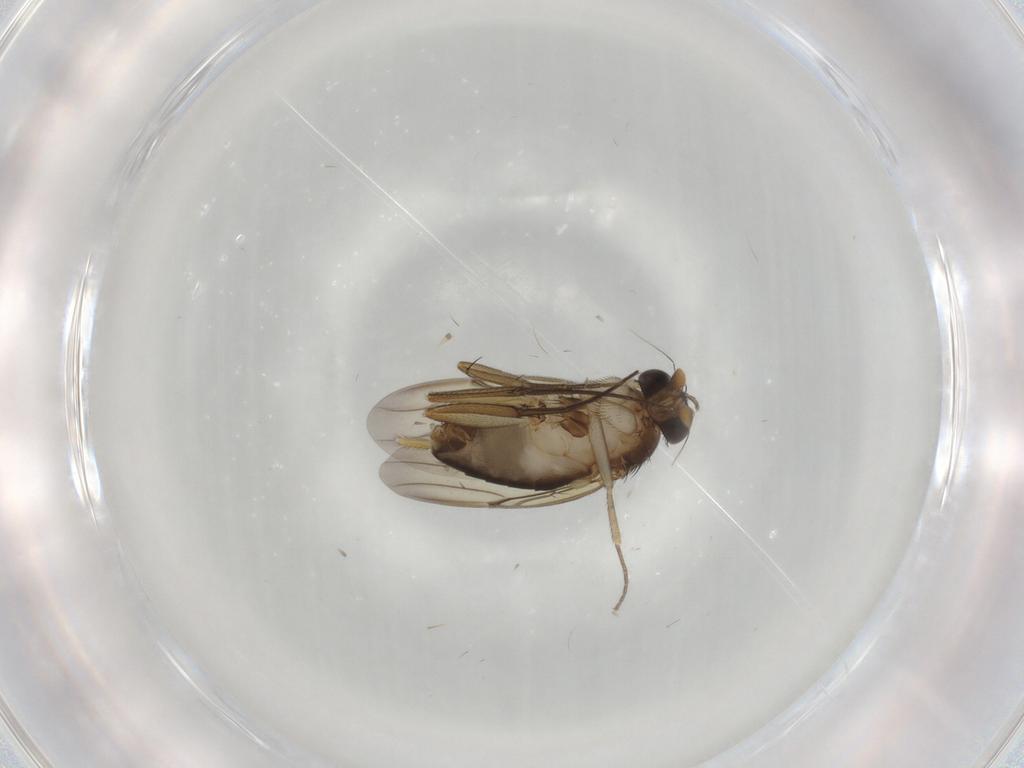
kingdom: Animalia
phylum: Arthropoda
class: Insecta
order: Diptera
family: Phoridae
